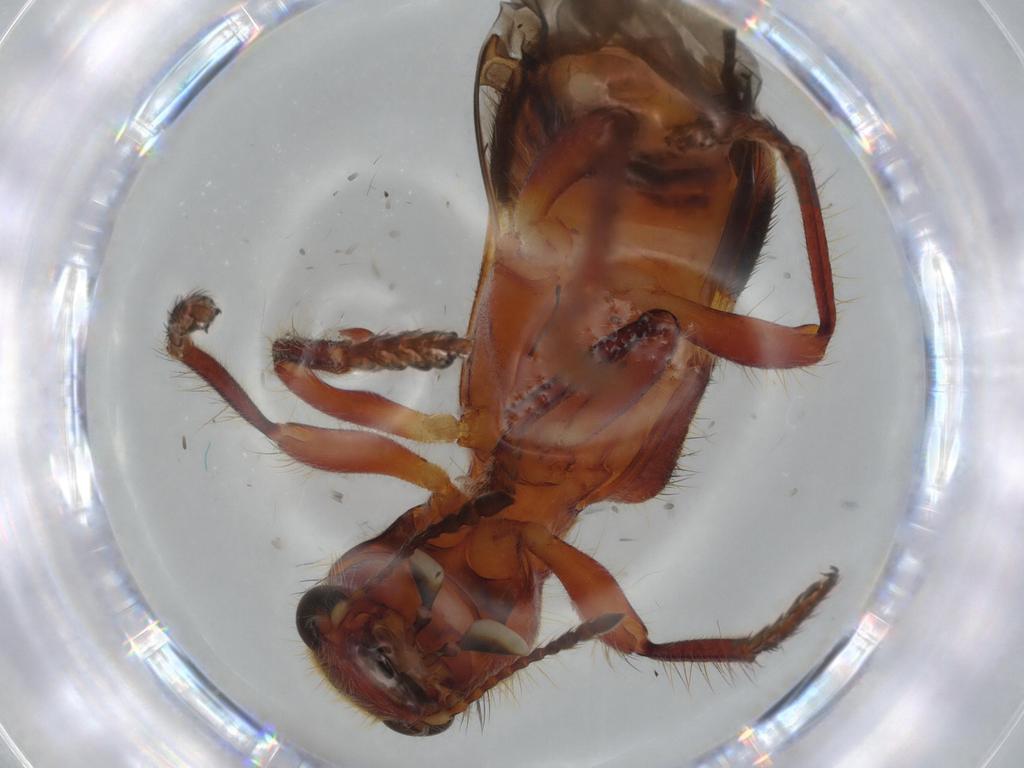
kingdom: Animalia
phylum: Arthropoda
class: Insecta
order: Coleoptera
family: Cleridae
